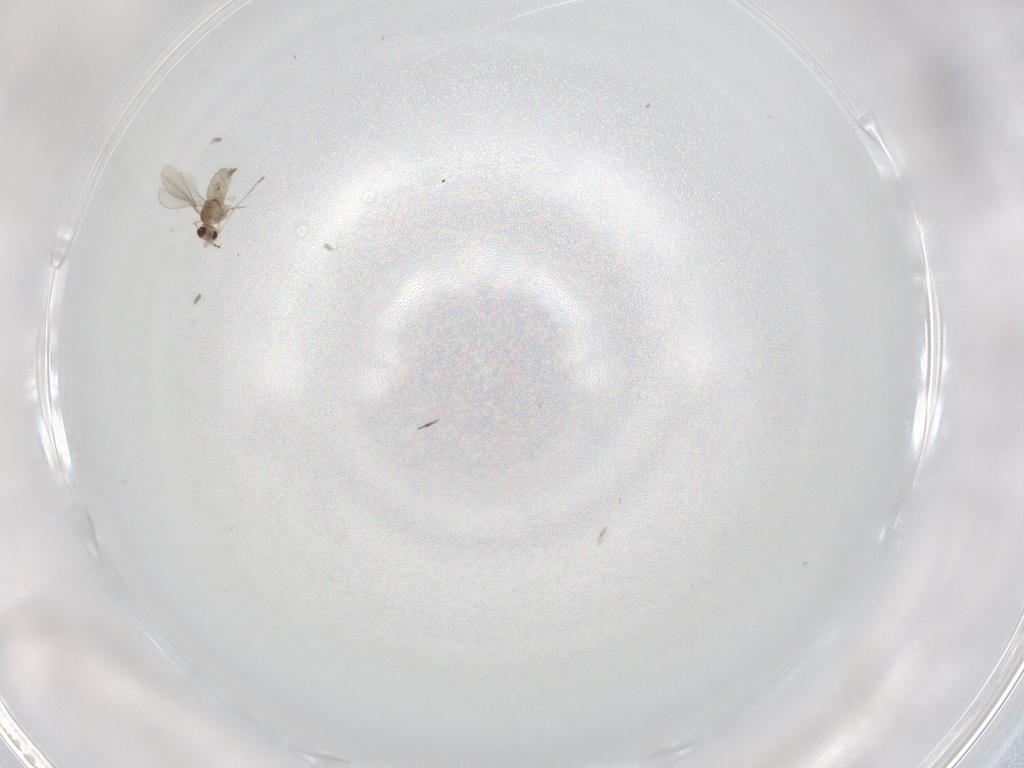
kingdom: Animalia
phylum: Arthropoda
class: Insecta
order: Diptera
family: Cecidomyiidae
